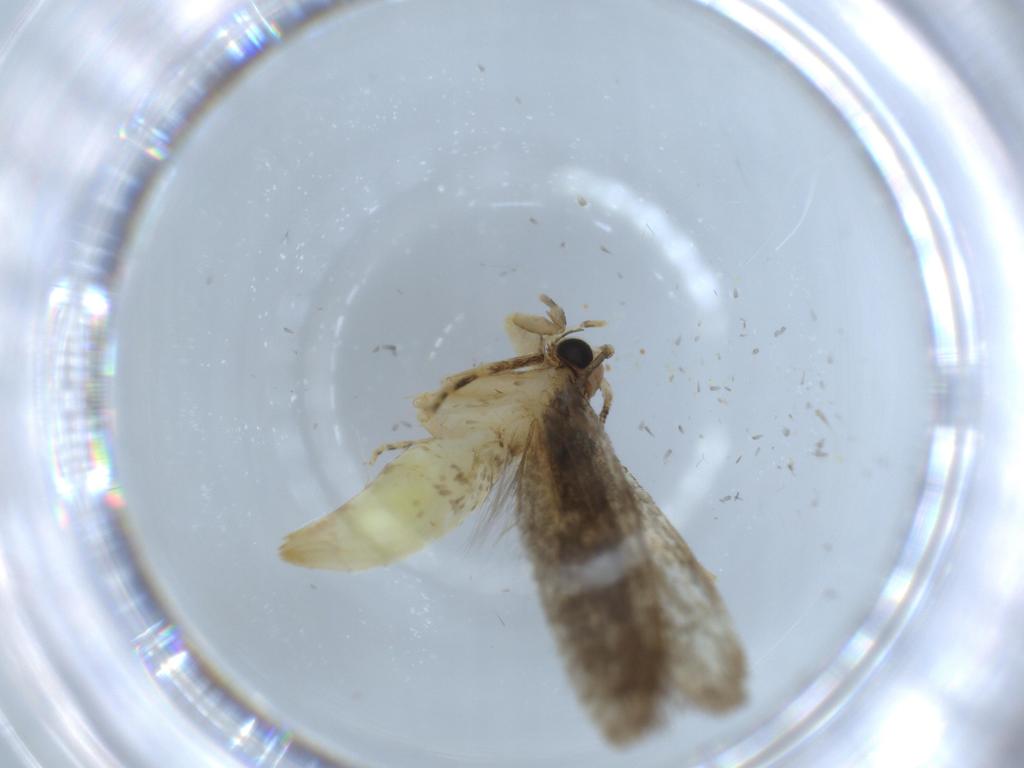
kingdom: Animalia
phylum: Arthropoda
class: Insecta
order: Lepidoptera
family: Tineidae
